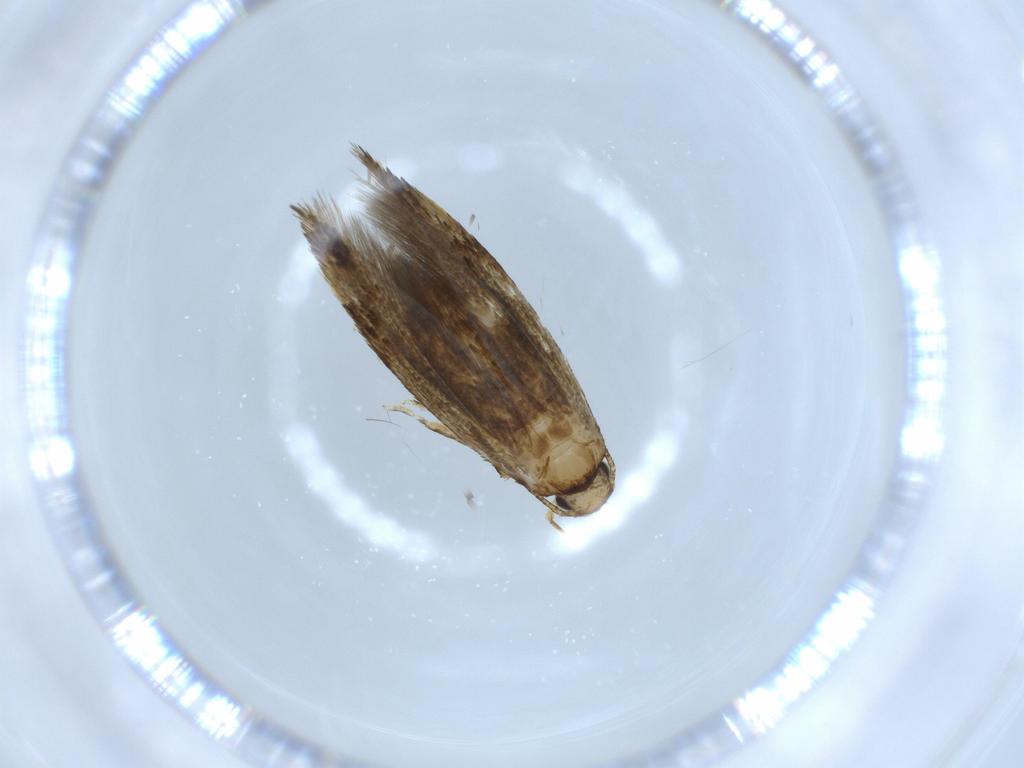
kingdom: Animalia
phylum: Arthropoda
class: Insecta
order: Lepidoptera
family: Tineidae
